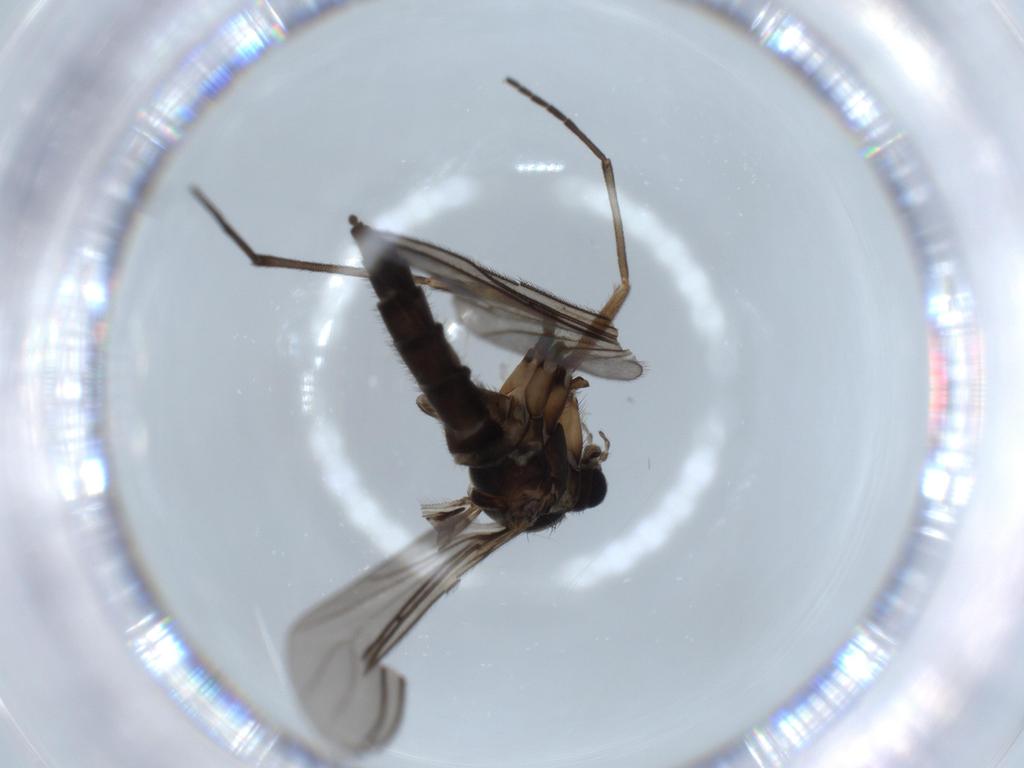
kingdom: Animalia
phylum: Arthropoda
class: Insecta
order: Diptera
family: Sciaridae
